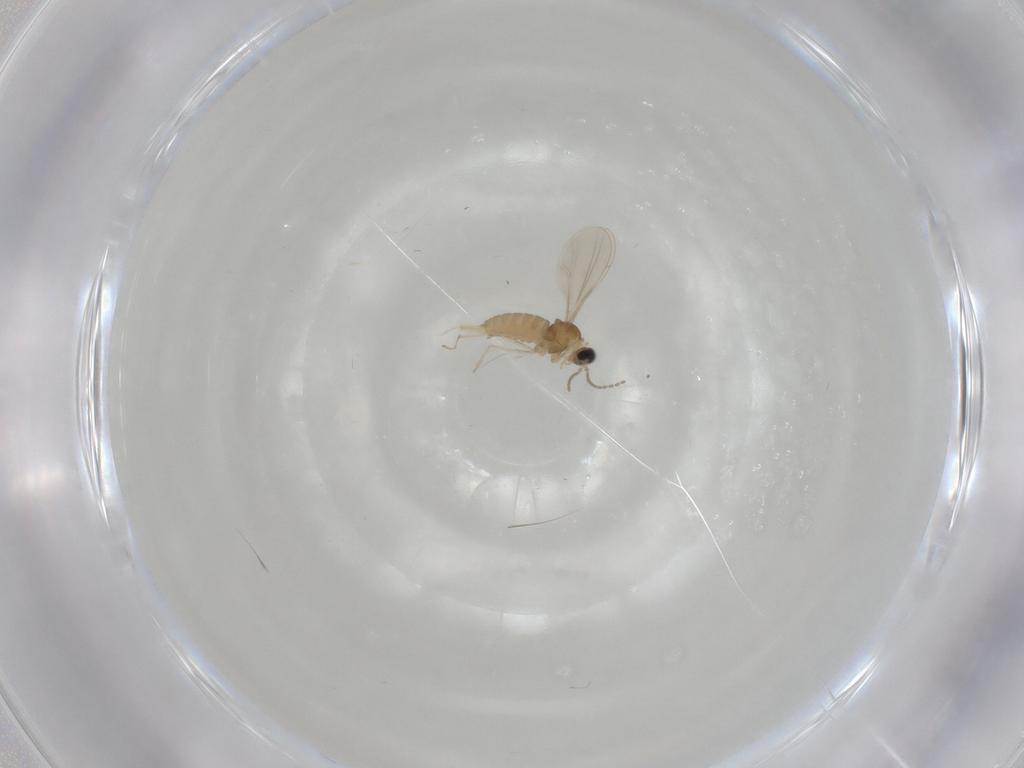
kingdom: Animalia
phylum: Arthropoda
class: Insecta
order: Diptera
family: Cecidomyiidae
